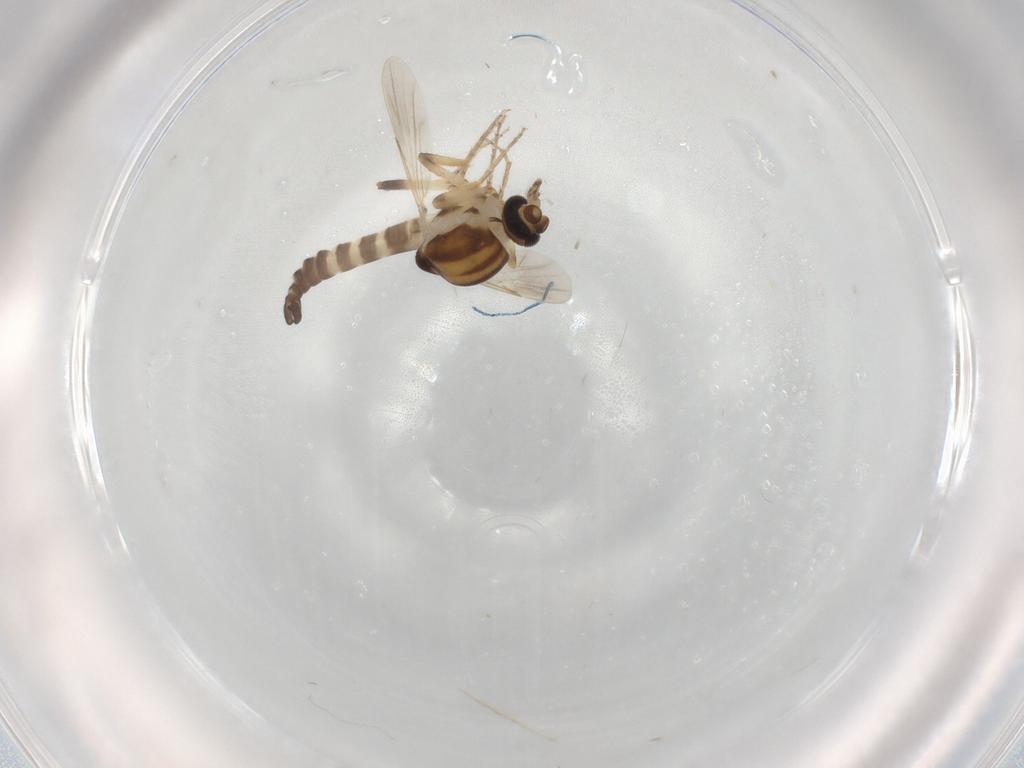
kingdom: Animalia
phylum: Arthropoda
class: Insecta
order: Diptera
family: Ceratopogonidae
